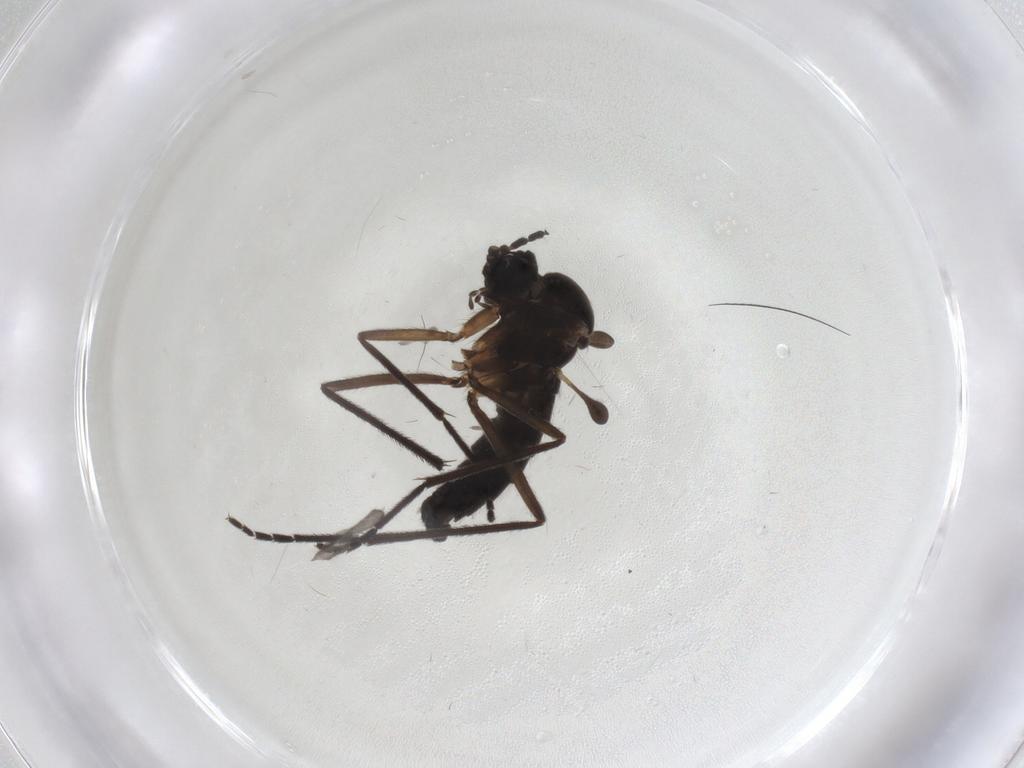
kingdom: Animalia
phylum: Arthropoda
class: Insecta
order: Diptera
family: Sciaridae
